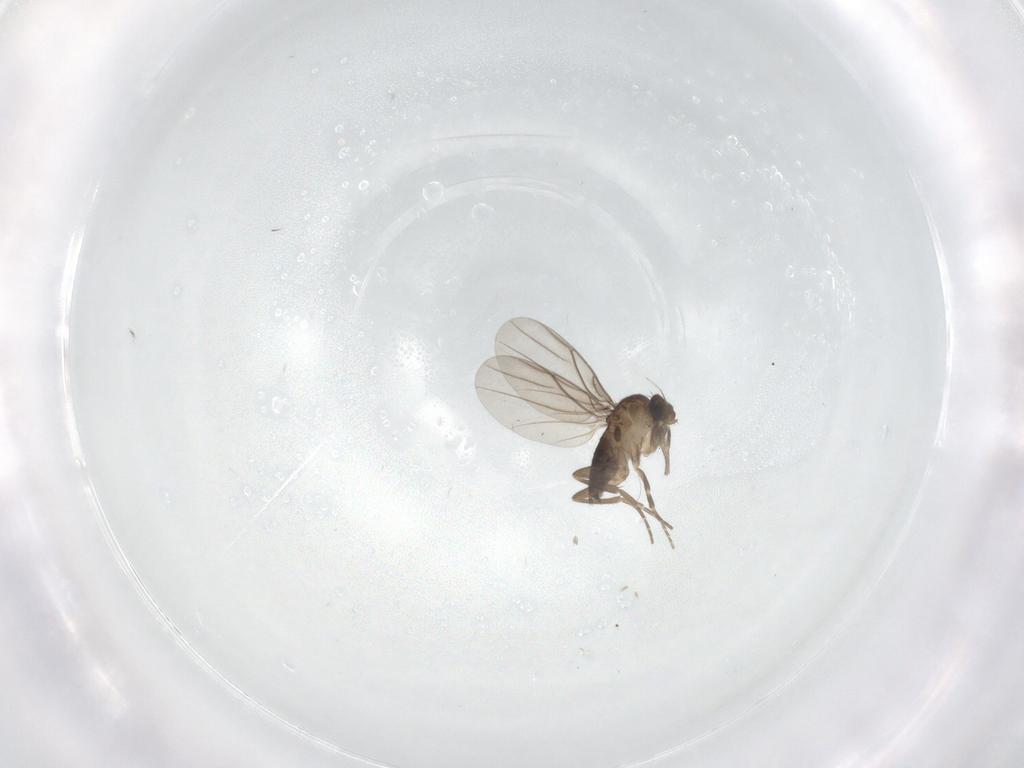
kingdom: Animalia
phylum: Arthropoda
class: Insecta
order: Diptera
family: Phoridae
